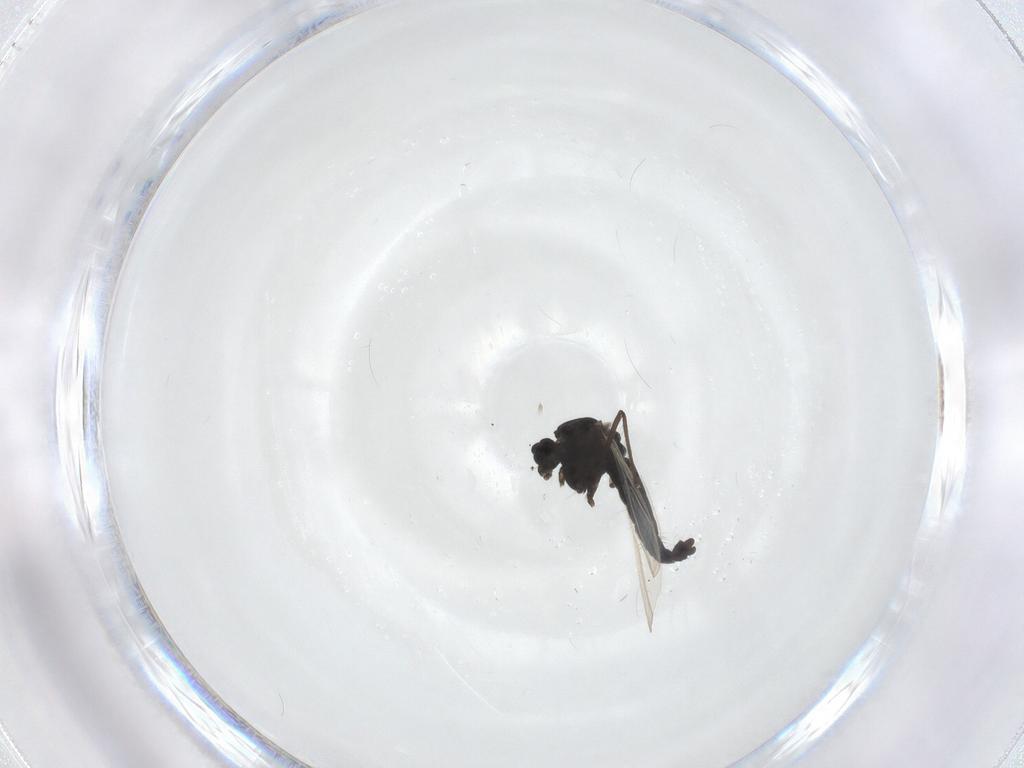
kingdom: Animalia
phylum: Arthropoda
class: Insecta
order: Diptera
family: Chironomidae
